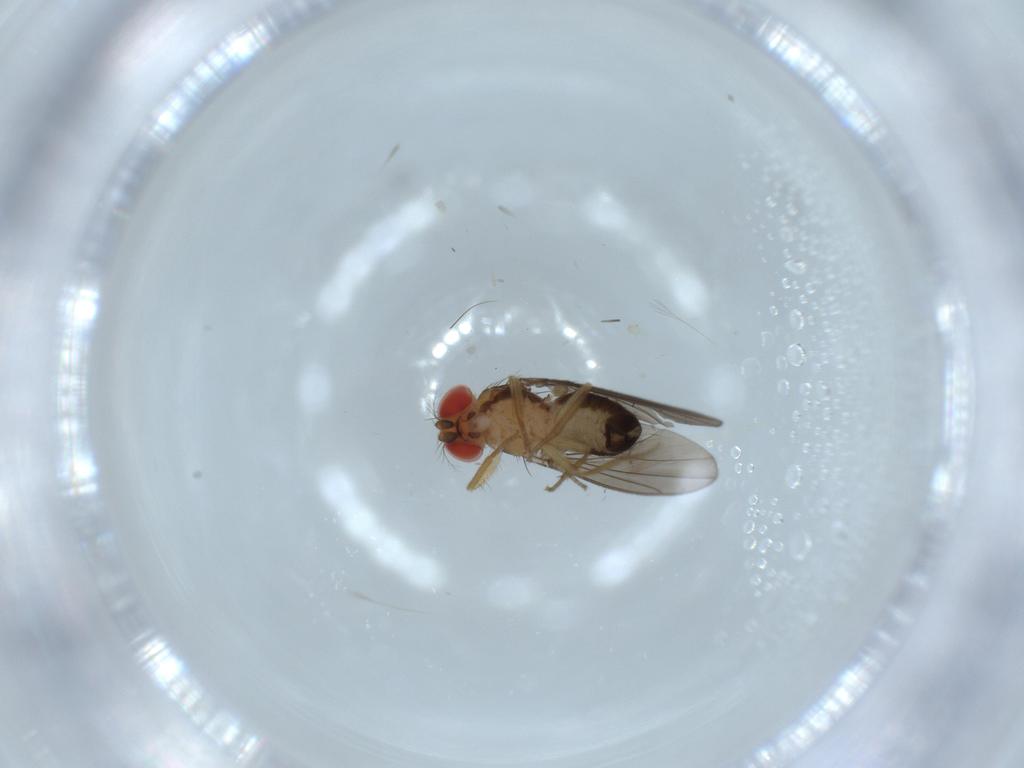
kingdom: Animalia
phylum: Arthropoda
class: Insecta
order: Diptera
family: Drosophilidae
